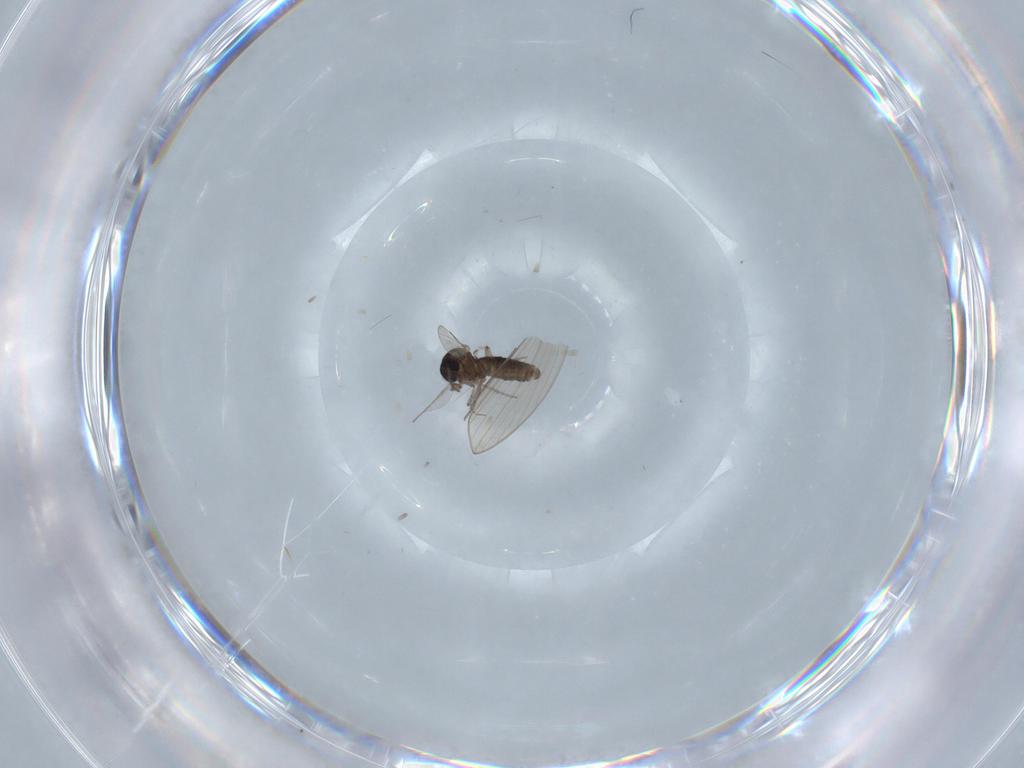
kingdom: Animalia
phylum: Arthropoda
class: Insecta
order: Diptera
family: Ceratopogonidae
